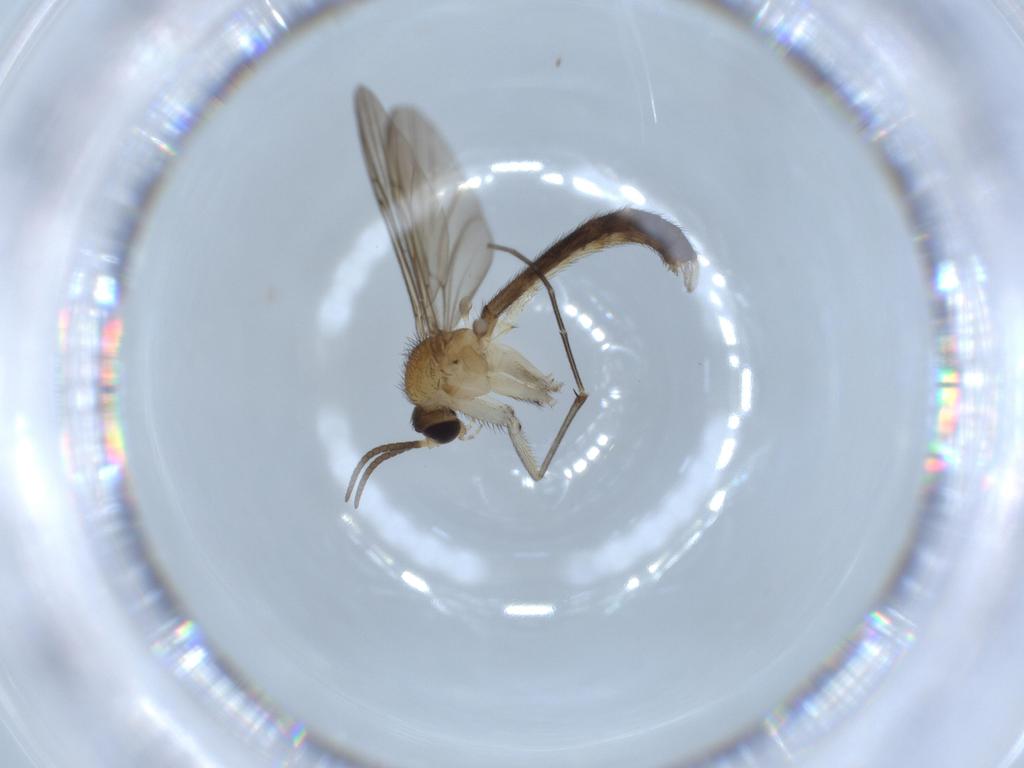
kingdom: Animalia
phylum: Arthropoda
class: Insecta
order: Diptera
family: Keroplatidae
